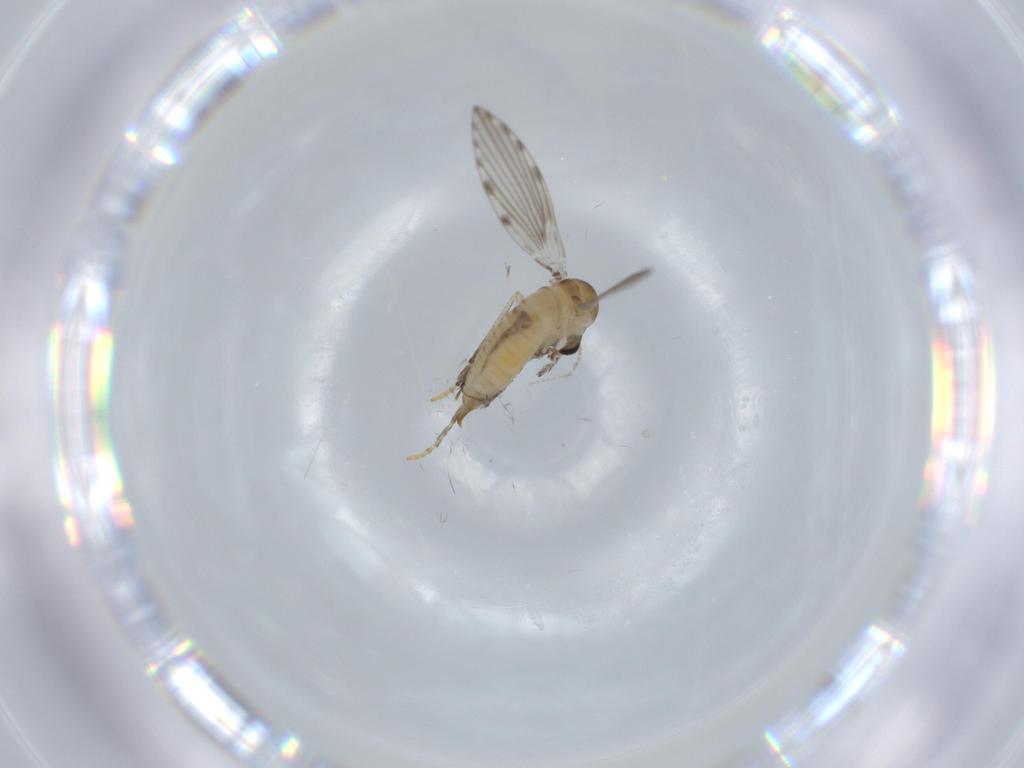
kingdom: Animalia
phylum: Arthropoda
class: Insecta
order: Diptera
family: Psychodidae
